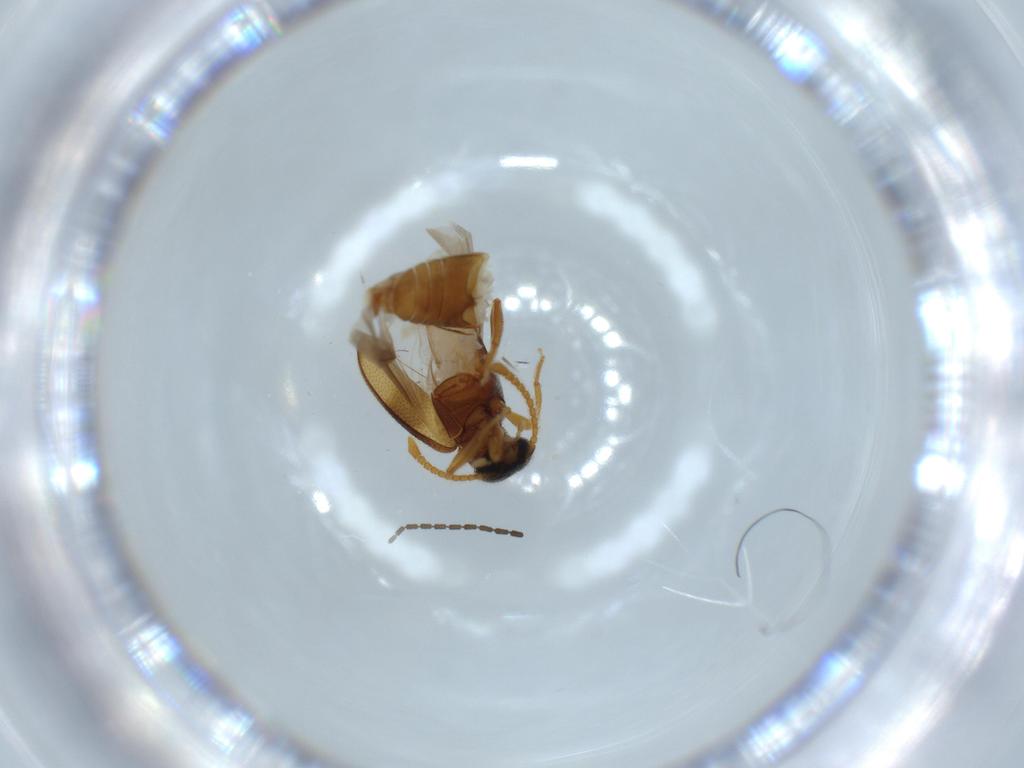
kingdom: Animalia
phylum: Arthropoda
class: Insecta
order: Coleoptera
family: Aderidae
